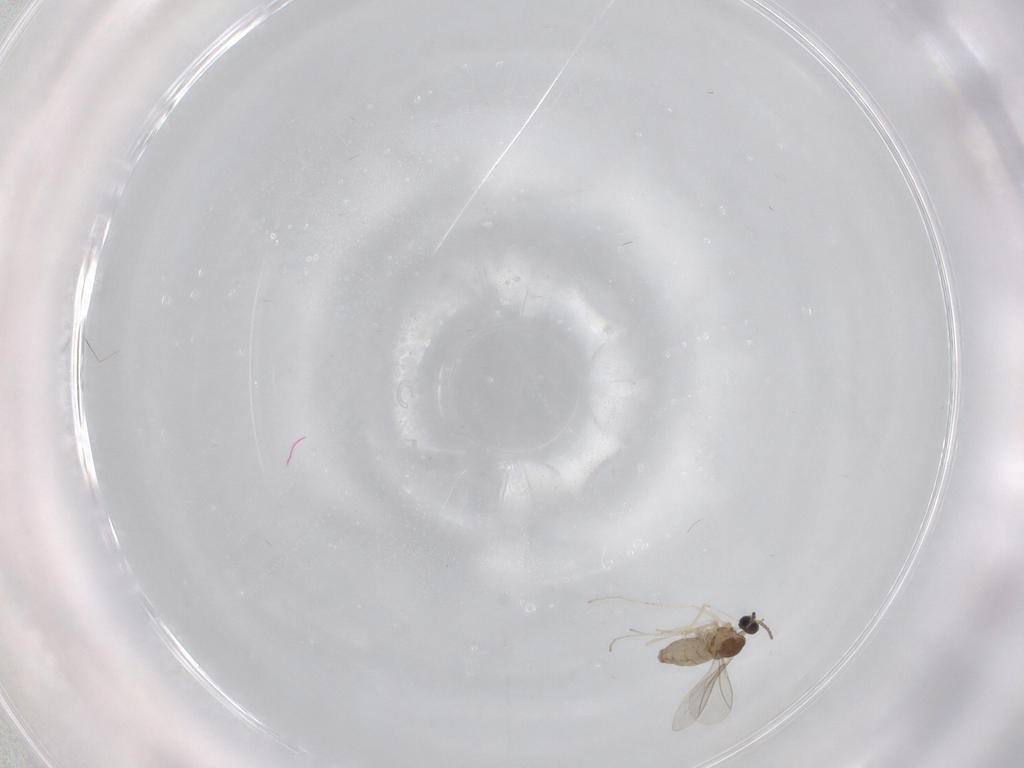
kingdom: Animalia
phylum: Arthropoda
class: Insecta
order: Diptera
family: Cecidomyiidae
